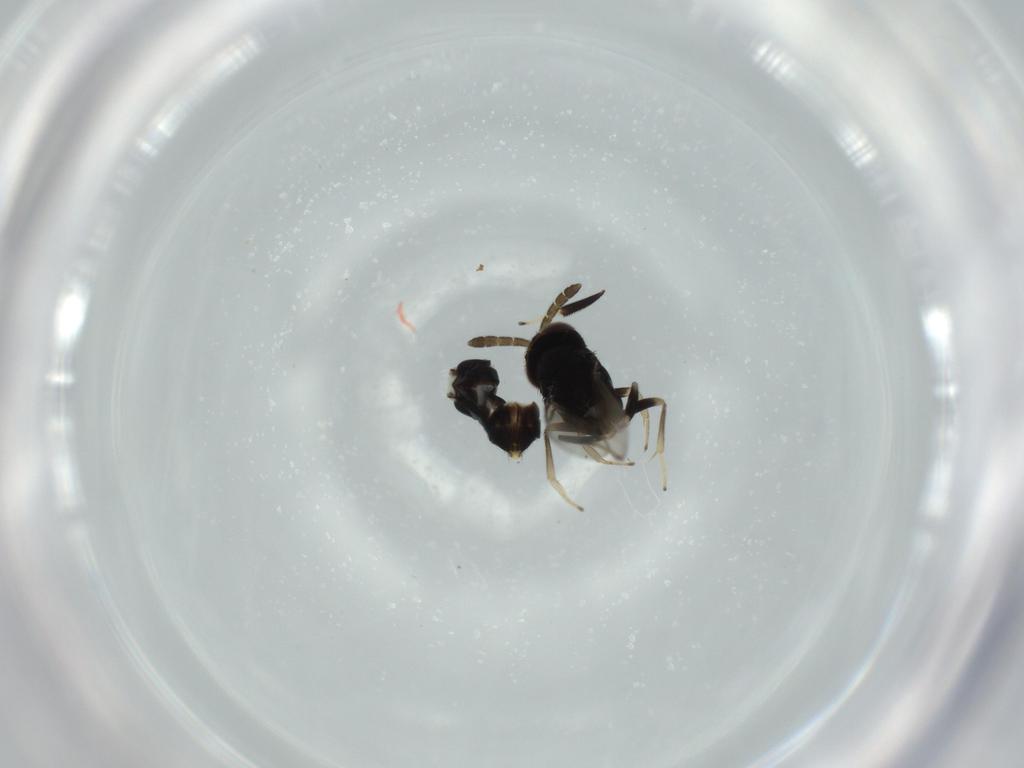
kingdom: Animalia
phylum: Arthropoda
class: Insecta
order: Hymenoptera
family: Aphelinidae
